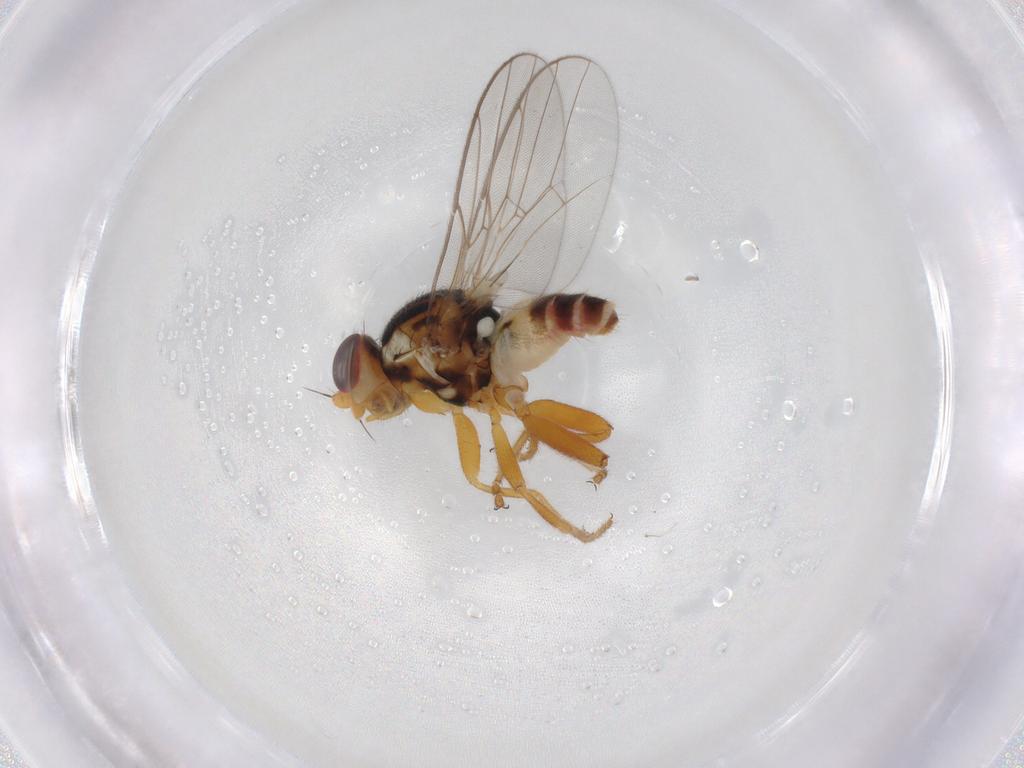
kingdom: Animalia
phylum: Arthropoda
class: Insecta
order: Diptera
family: Chloropidae
